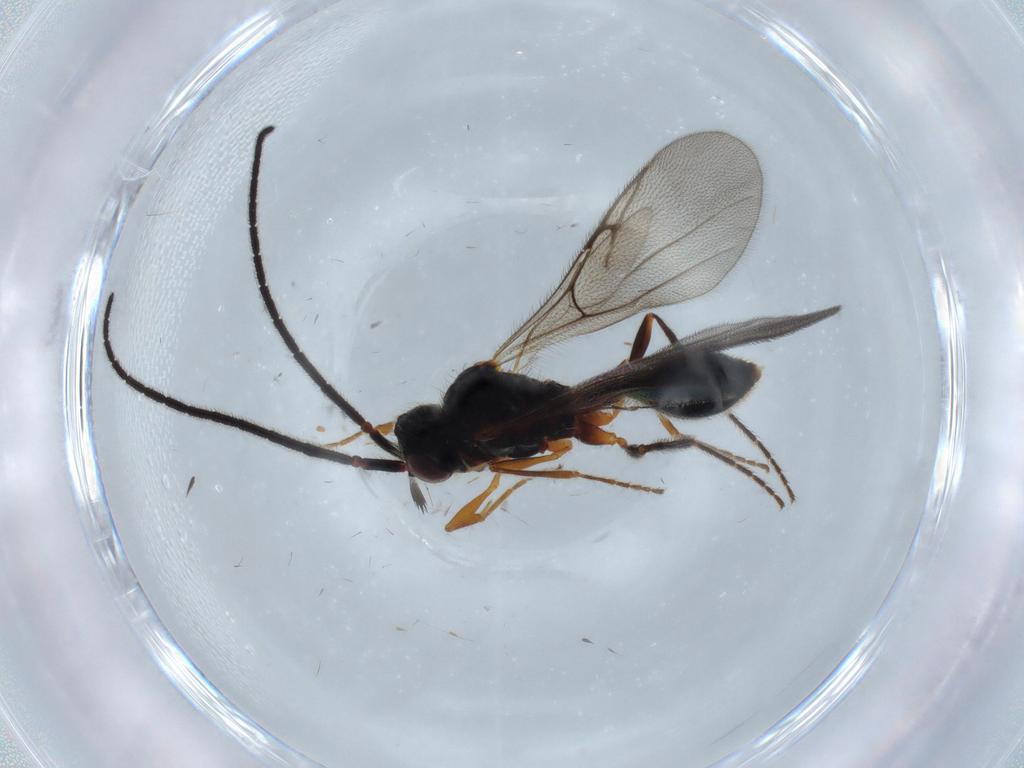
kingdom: Animalia
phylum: Arthropoda
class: Insecta
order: Hymenoptera
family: Diapriidae
